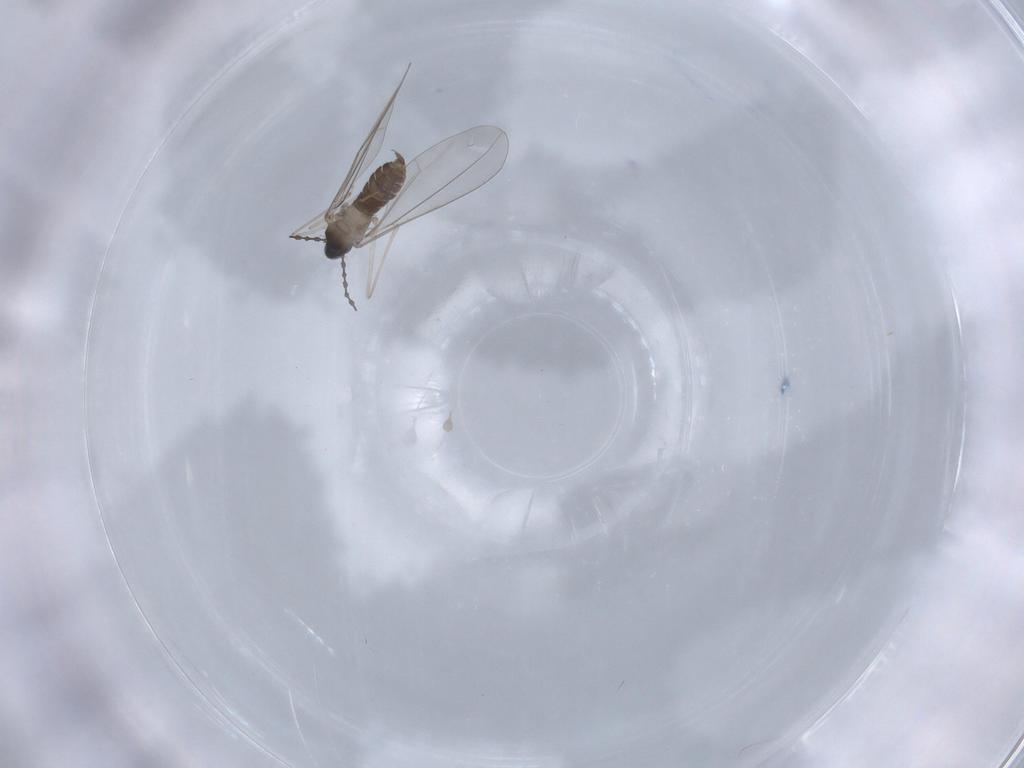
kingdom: Animalia
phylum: Arthropoda
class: Insecta
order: Diptera
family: Cecidomyiidae
